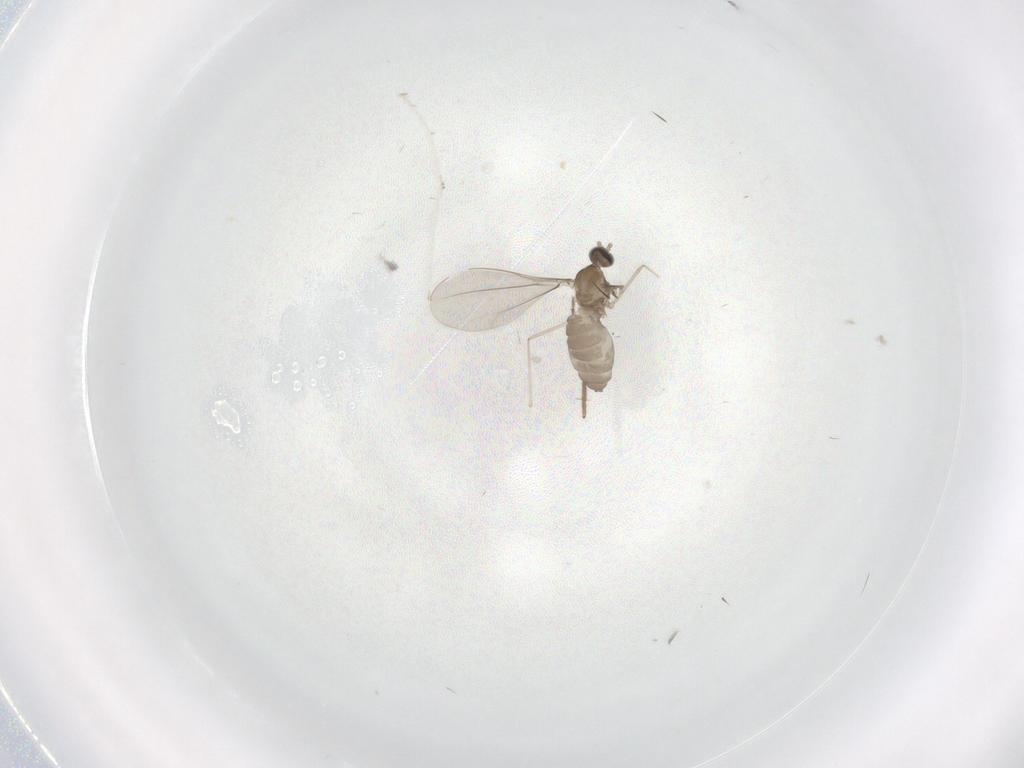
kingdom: Animalia
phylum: Arthropoda
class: Insecta
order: Diptera
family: Cecidomyiidae
